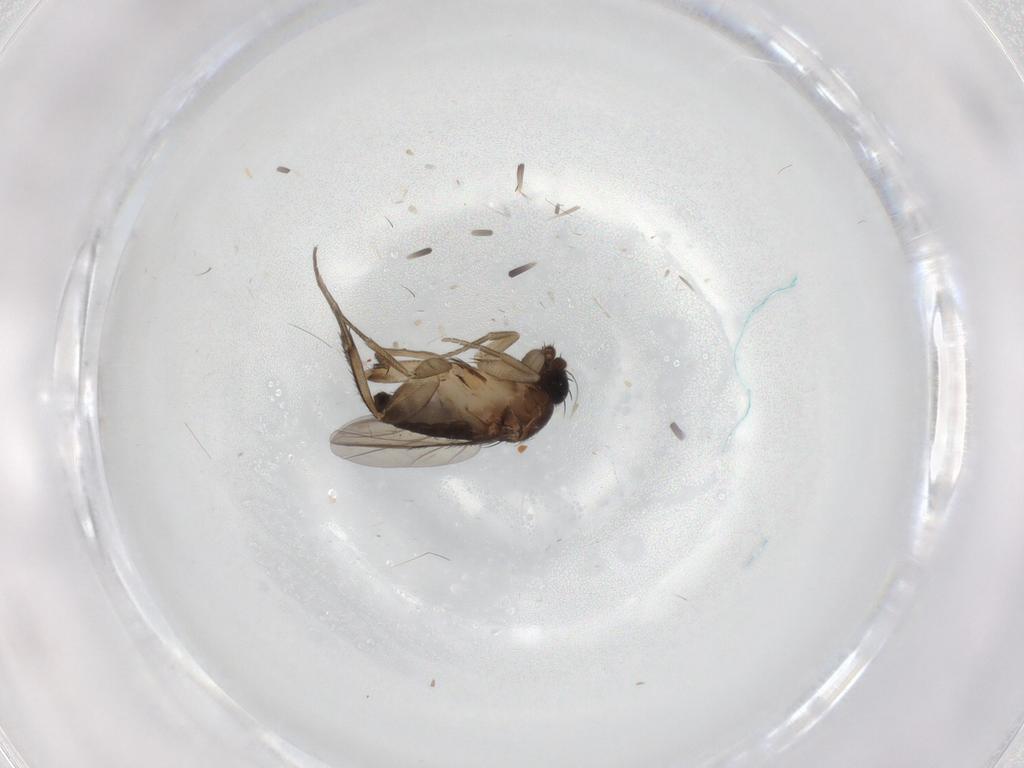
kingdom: Animalia
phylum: Arthropoda
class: Insecta
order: Diptera
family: Phoridae
